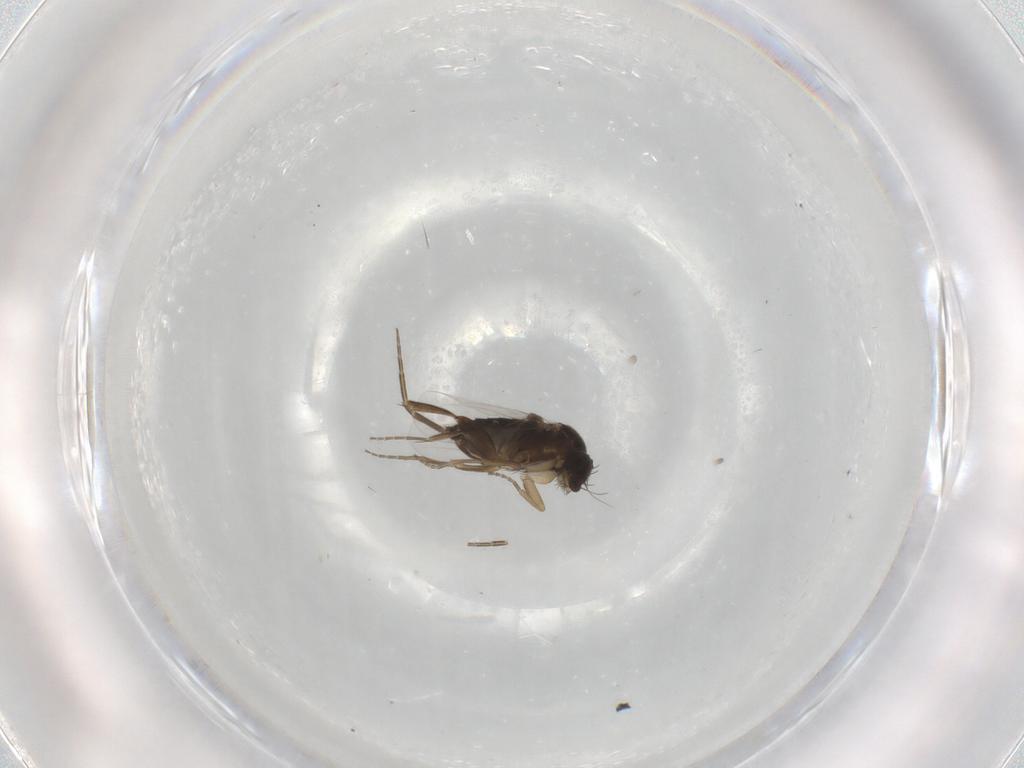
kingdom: Animalia
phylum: Arthropoda
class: Insecta
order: Diptera
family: Phoridae
